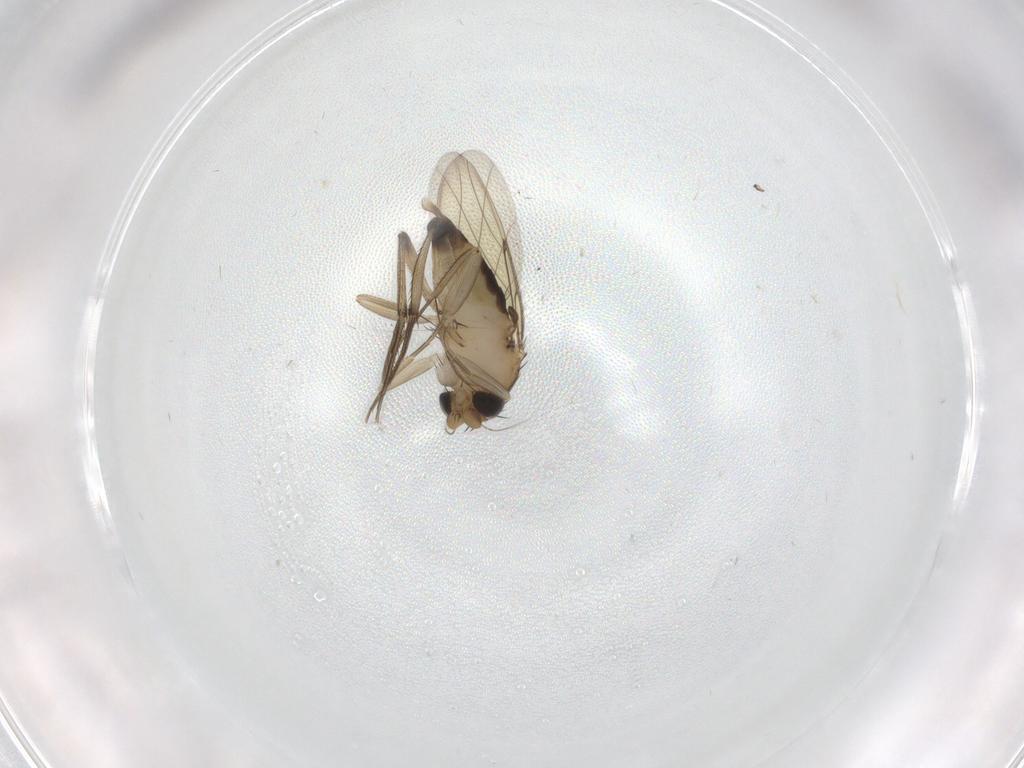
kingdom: Animalia
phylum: Arthropoda
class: Insecta
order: Diptera
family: Phoridae
